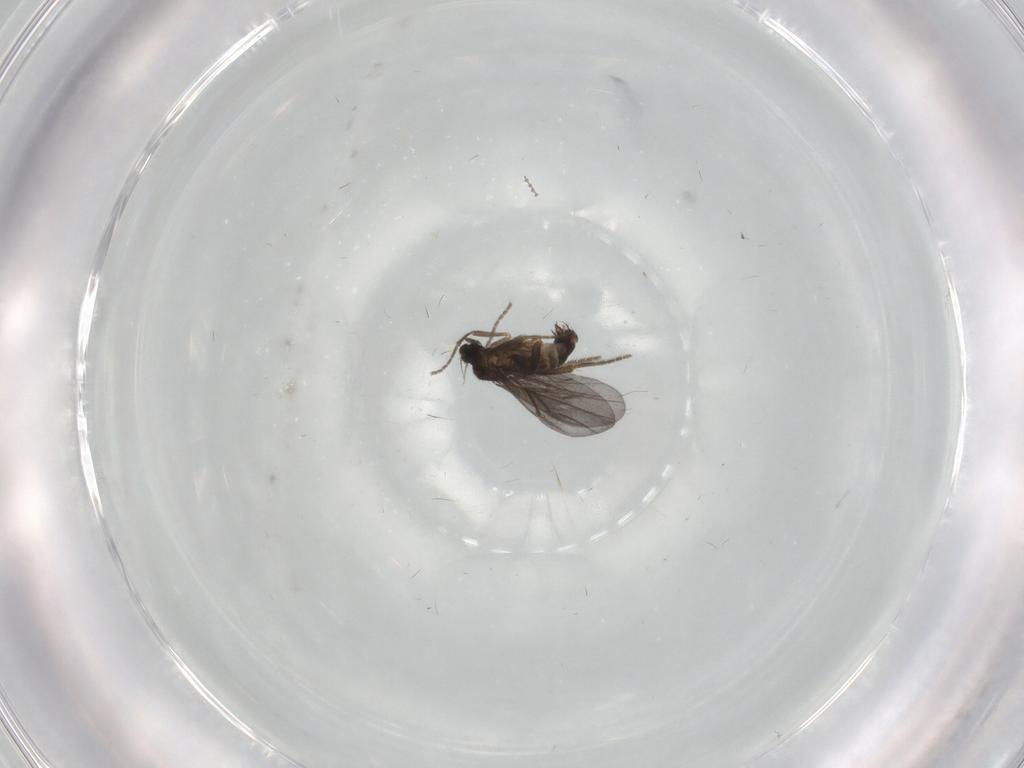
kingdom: Animalia
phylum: Arthropoda
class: Insecta
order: Diptera
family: Phoridae
